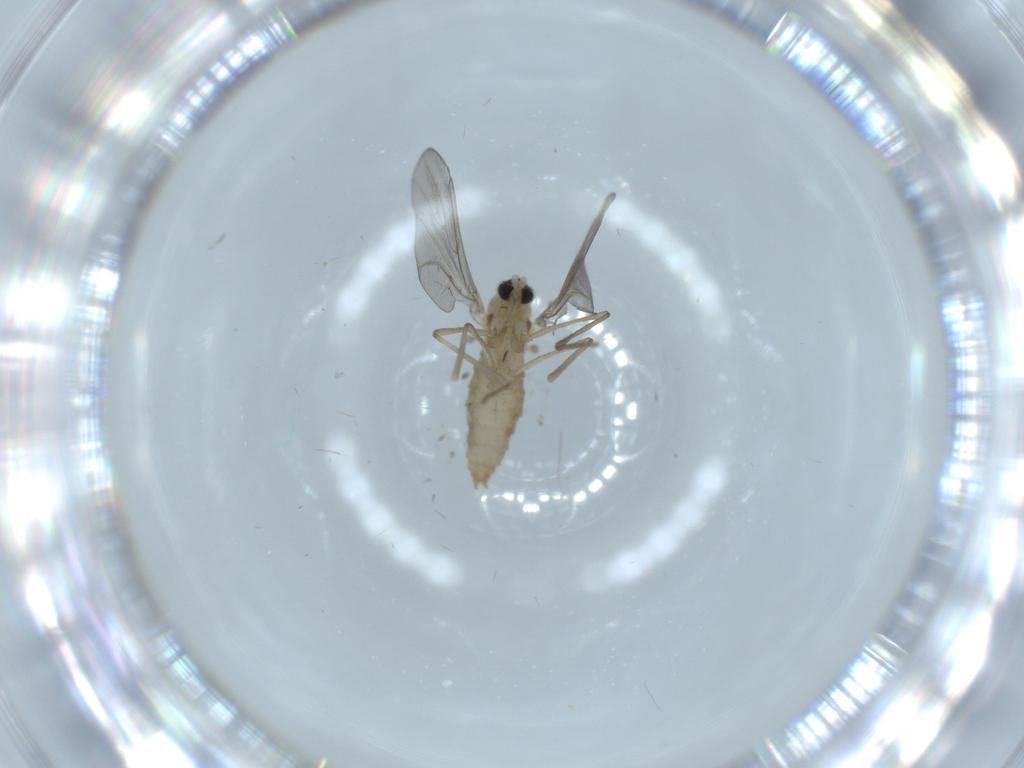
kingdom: Animalia
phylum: Arthropoda
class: Insecta
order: Diptera
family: Cecidomyiidae
